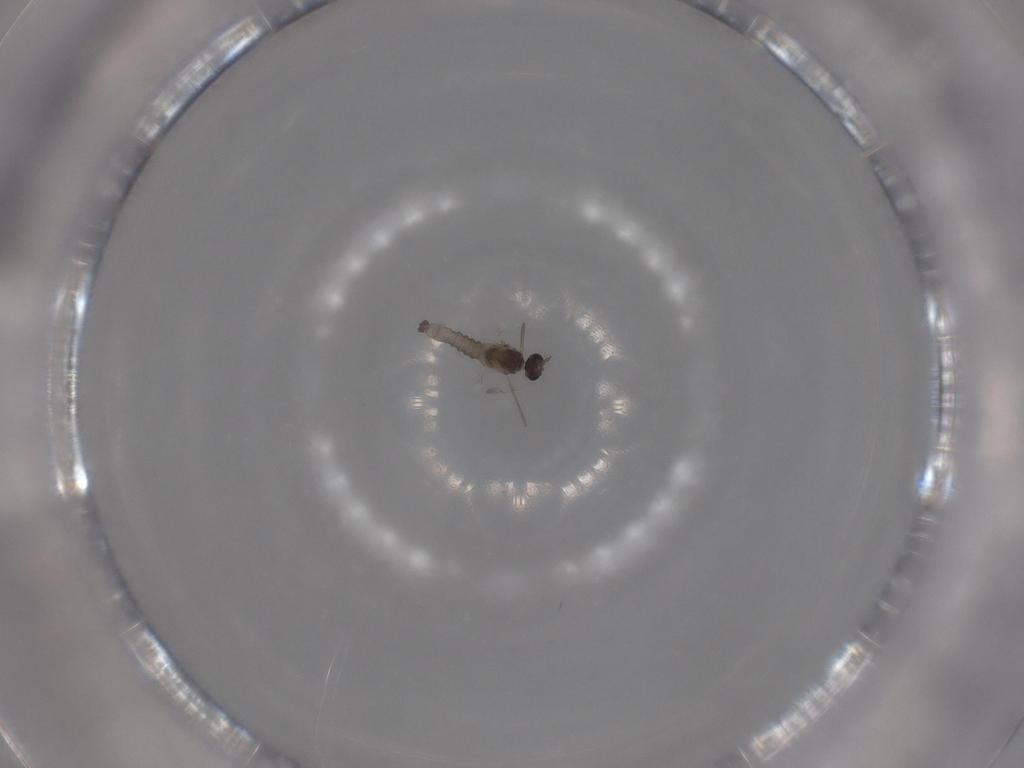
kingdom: Animalia
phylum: Arthropoda
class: Insecta
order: Diptera
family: Cecidomyiidae
